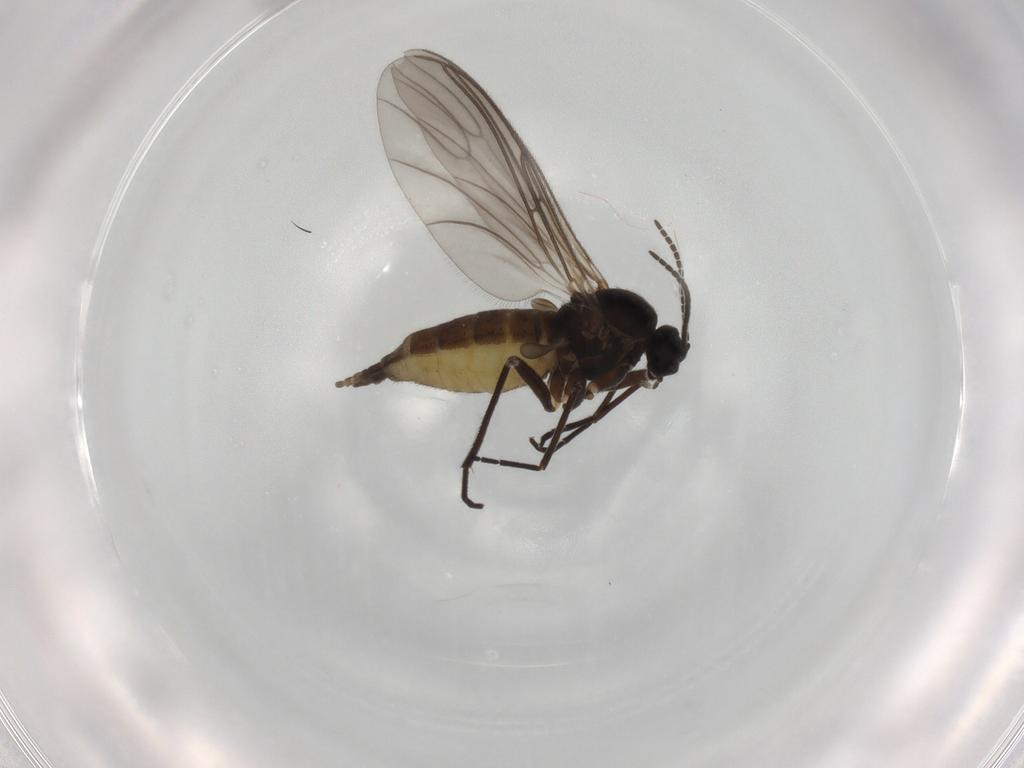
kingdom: Animalia
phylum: Arthropoda
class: Insecta
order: Diptera
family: Sciaridae
